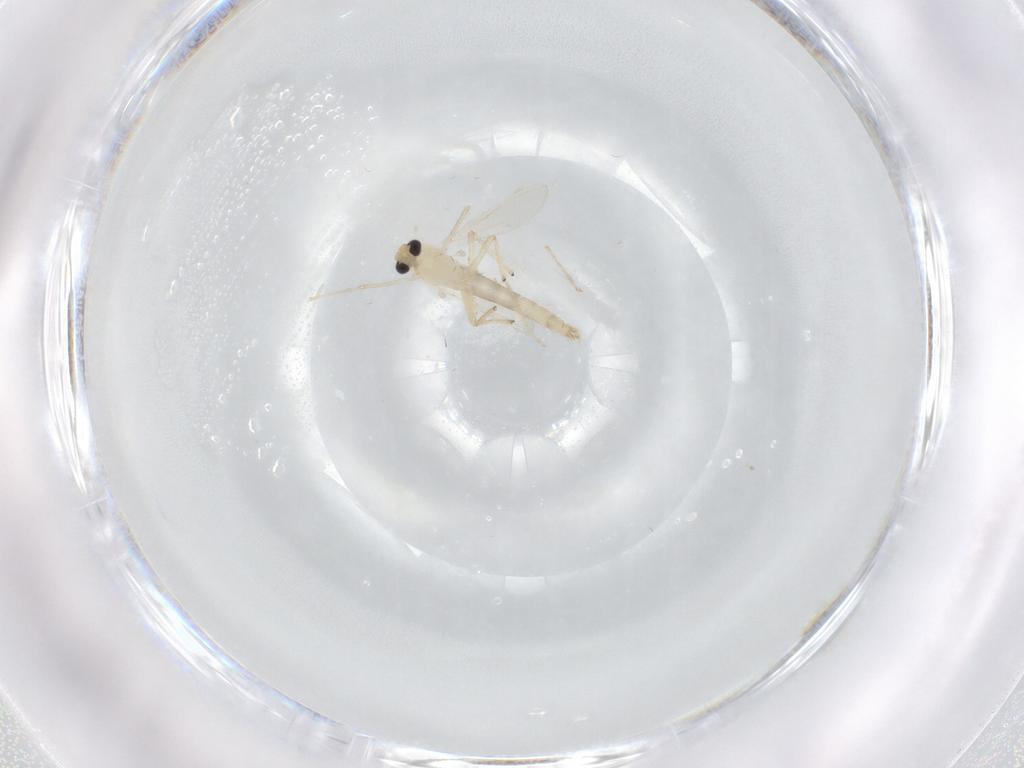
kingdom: Animalia
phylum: Arthropoda
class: Insecta
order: Diptera
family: Chironomidae
